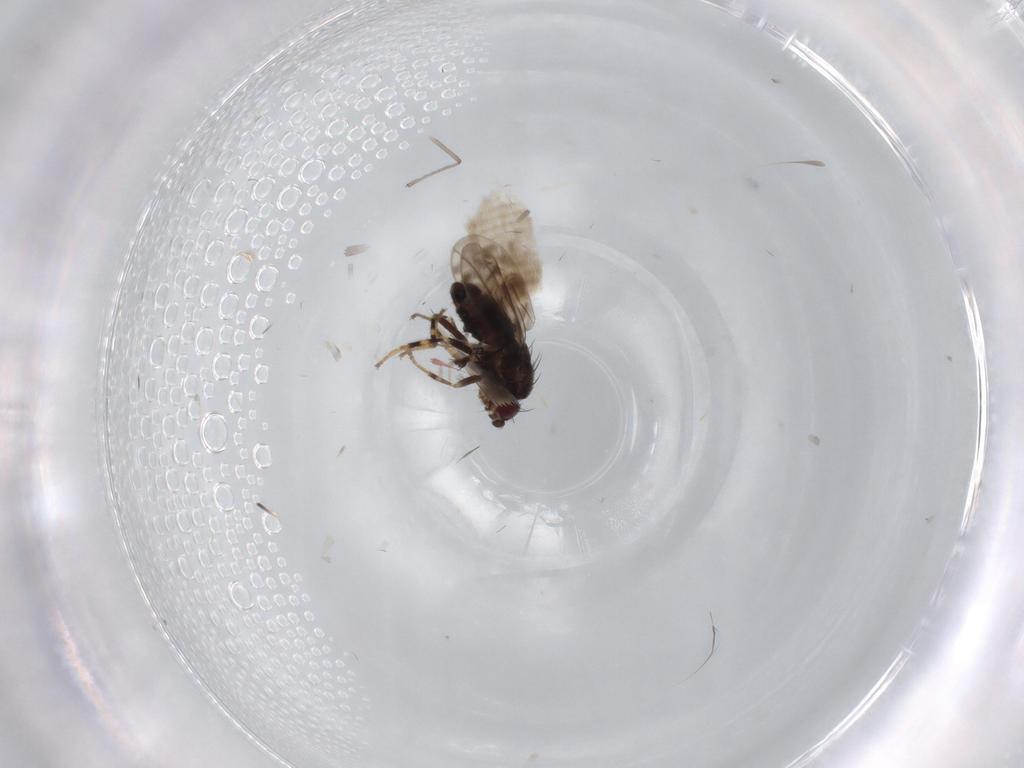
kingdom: Animalia
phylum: Arthropoda
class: Insecta
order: Diptera
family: Sphaeroceridae
